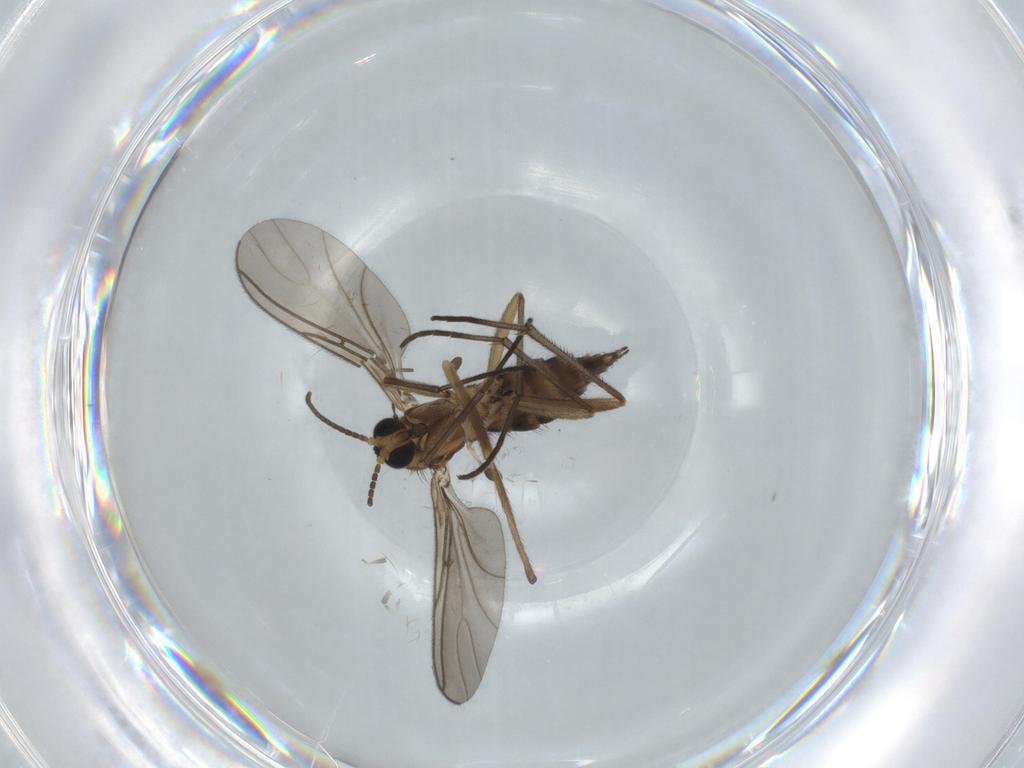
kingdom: Animalia
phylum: Arthropoda
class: Insecta
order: Diptera
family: Sciaridae
